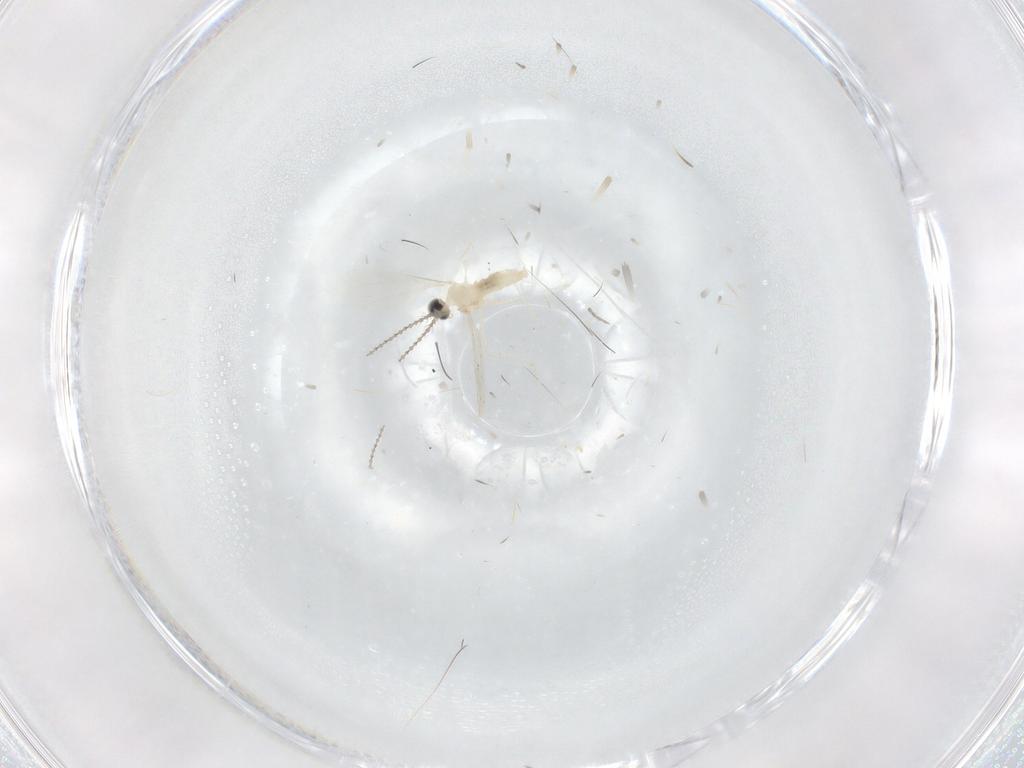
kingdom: Animalia
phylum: Arthropoda
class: Insecta
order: Diptera
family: Cecidomyiidae
